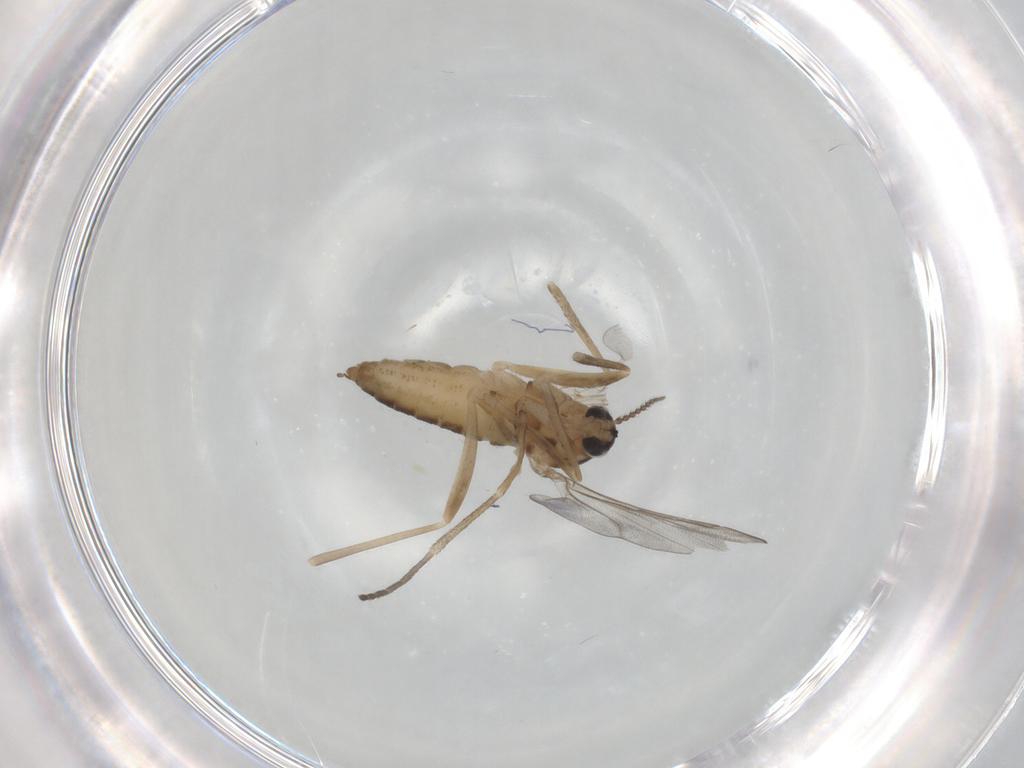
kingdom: Animalia
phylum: Arthropoda
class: Insecta
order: Diptera
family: Cecidomyiidae
